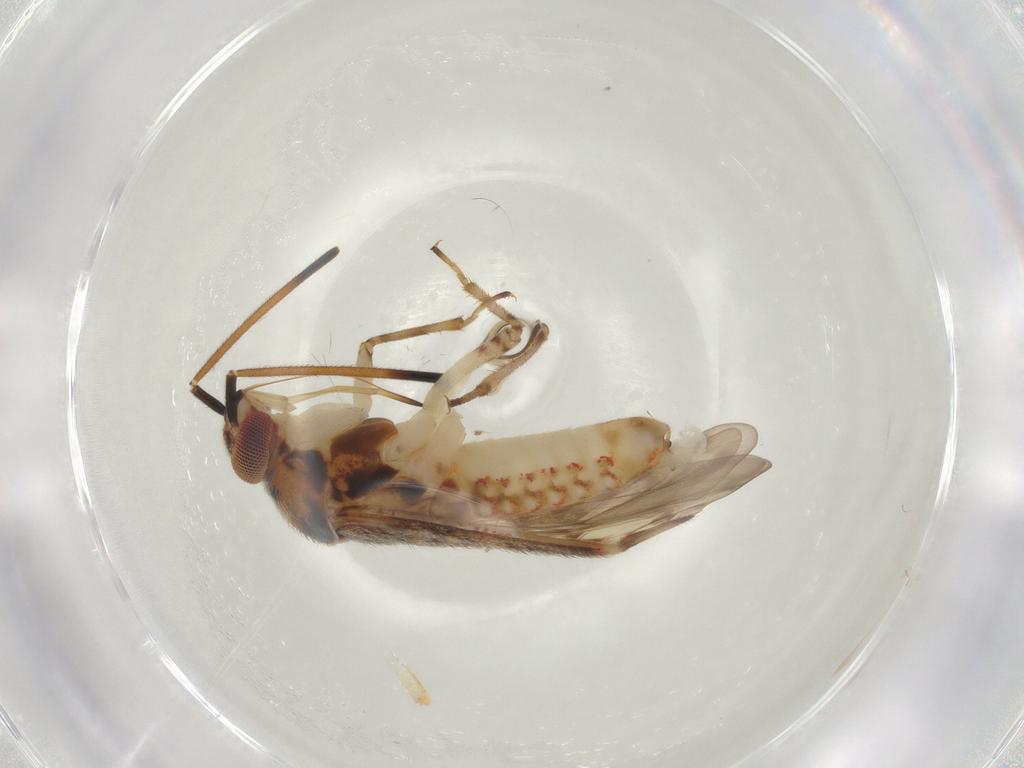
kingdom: Animalia
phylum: Arthropoda
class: Insecta
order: Hemiptera
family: Miridae
